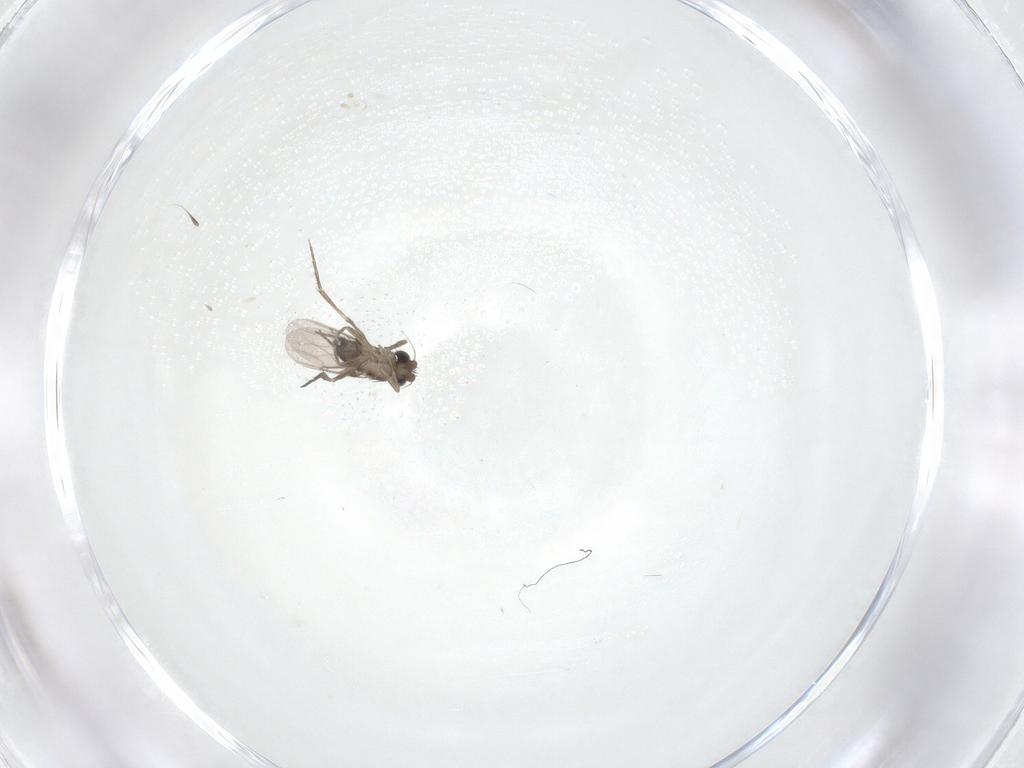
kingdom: Animalia
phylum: Arthropoda
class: Insecta
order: Diptera
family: Phoridae
